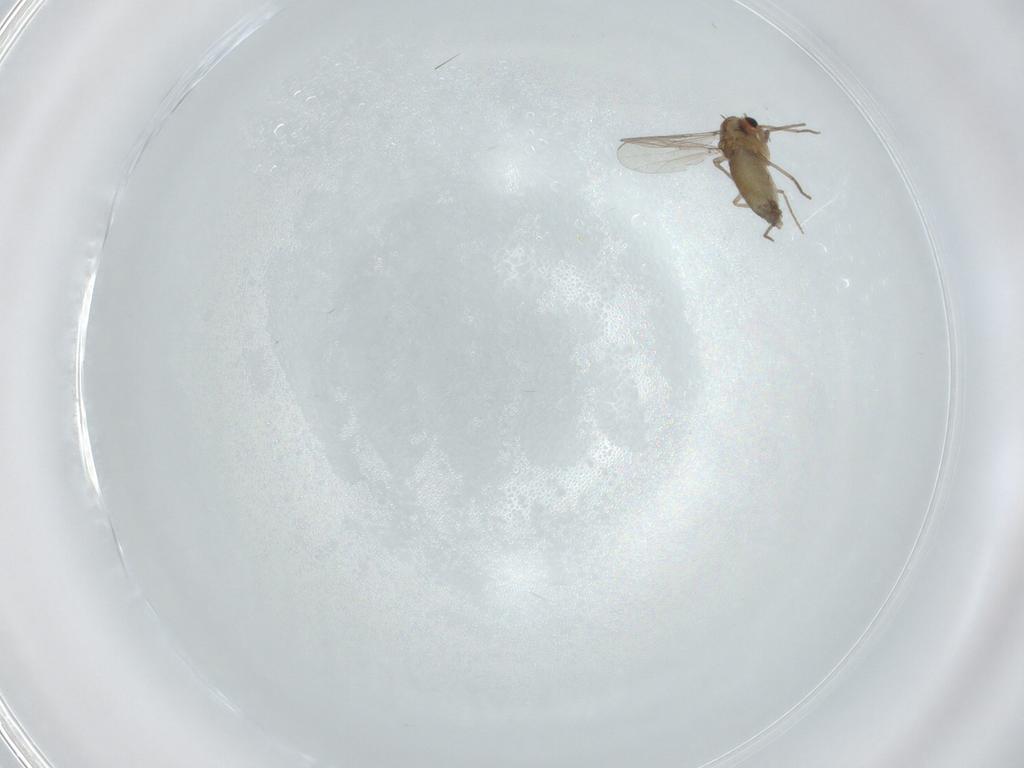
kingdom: Animalia
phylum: Arthropoda
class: Insecta
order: Diptera
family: Chironomidae
